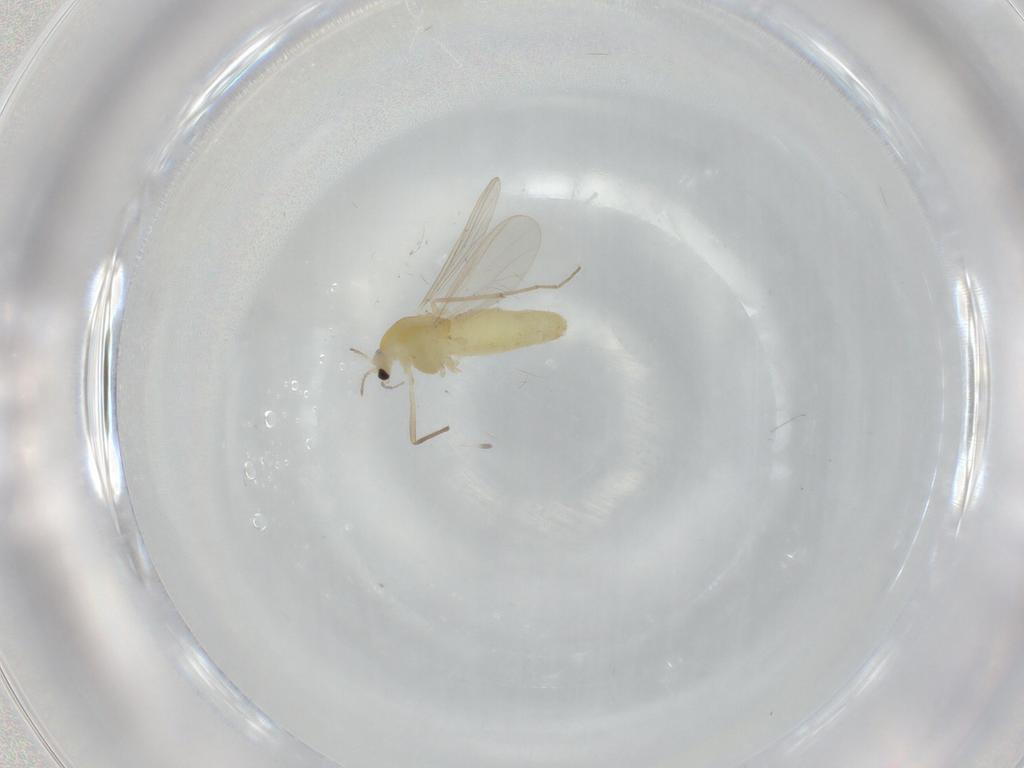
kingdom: Animalia
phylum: Arthropoda
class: Insecta
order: Diptera
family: Chironomidae
